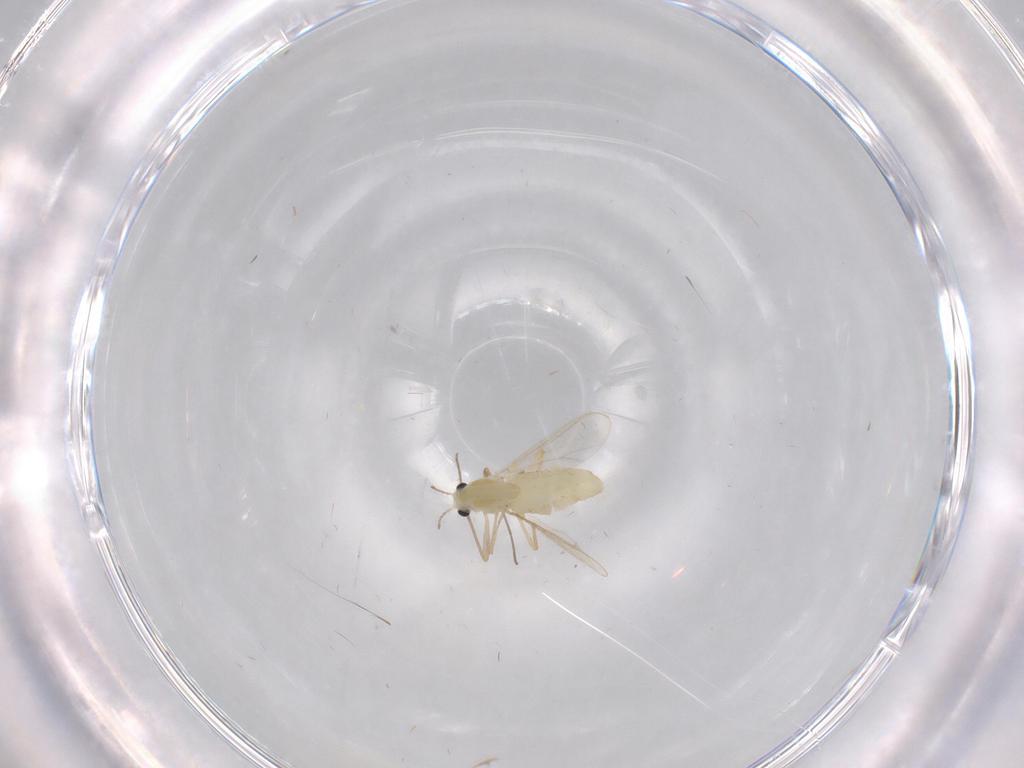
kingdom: Animalia
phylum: Arthropoda
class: Insecta
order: Diptera
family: Chironomidae
